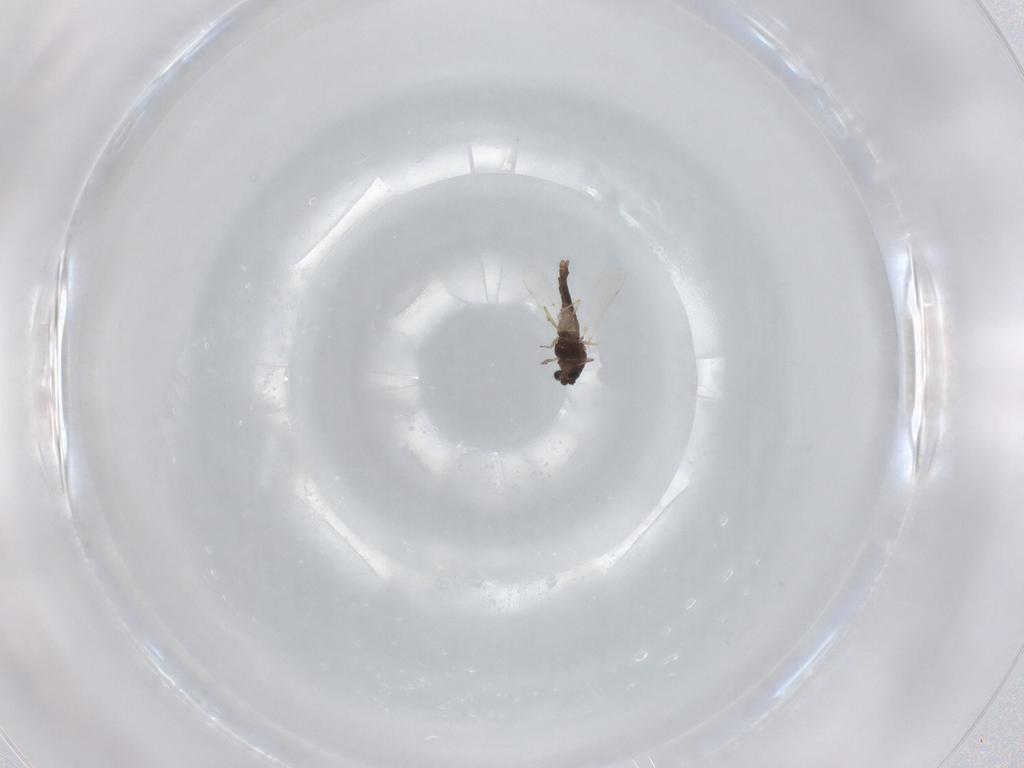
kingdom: Animalia
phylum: Arthropoda
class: Insecta
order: Diptera
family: Chironomidae
